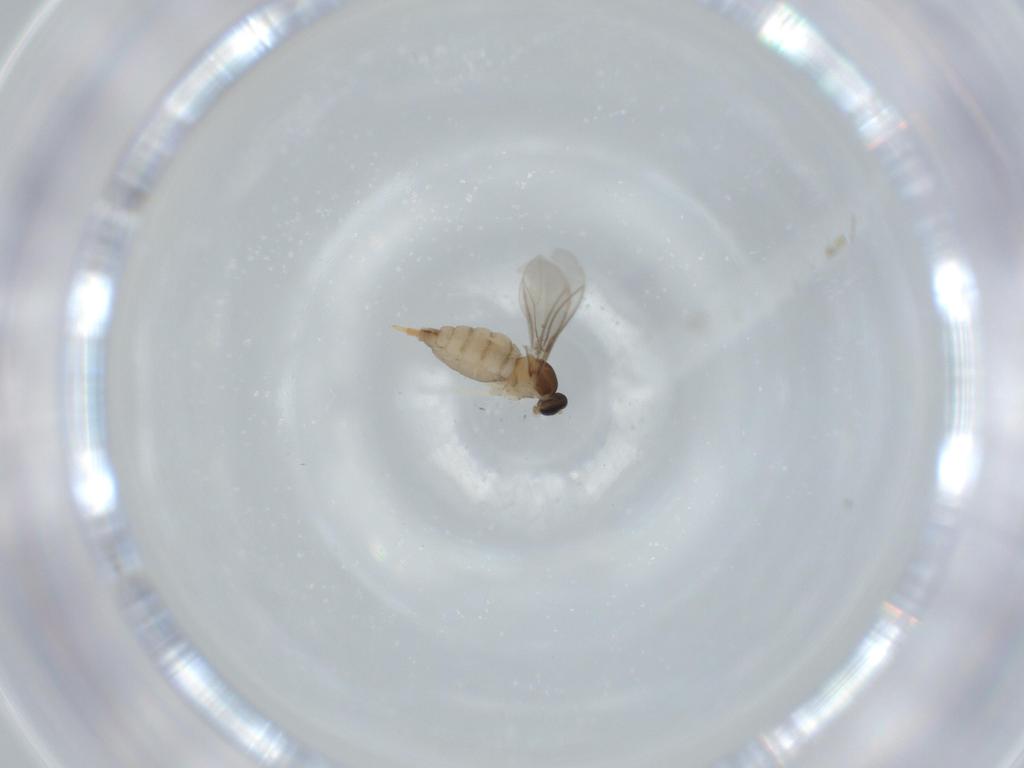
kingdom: Animalia
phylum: Arthropoda
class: Insecta
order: Diptera
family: Cecidomyiidae
